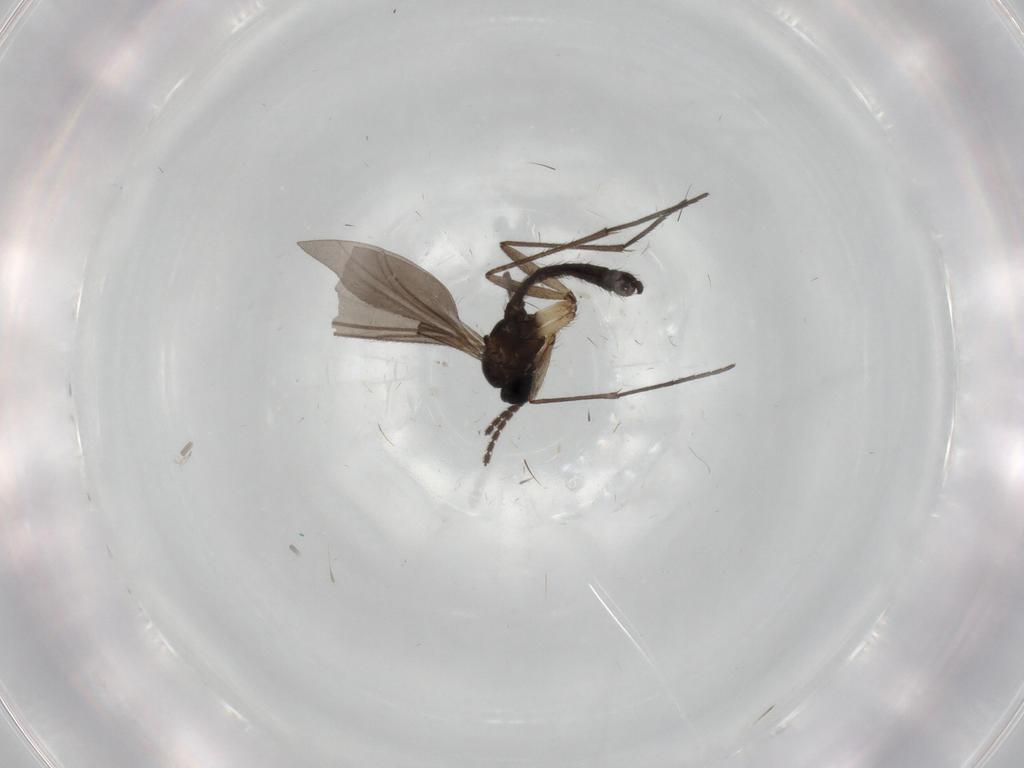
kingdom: Animalia
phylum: Arthropoda
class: Insecta
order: Diptera
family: Sciaridae
